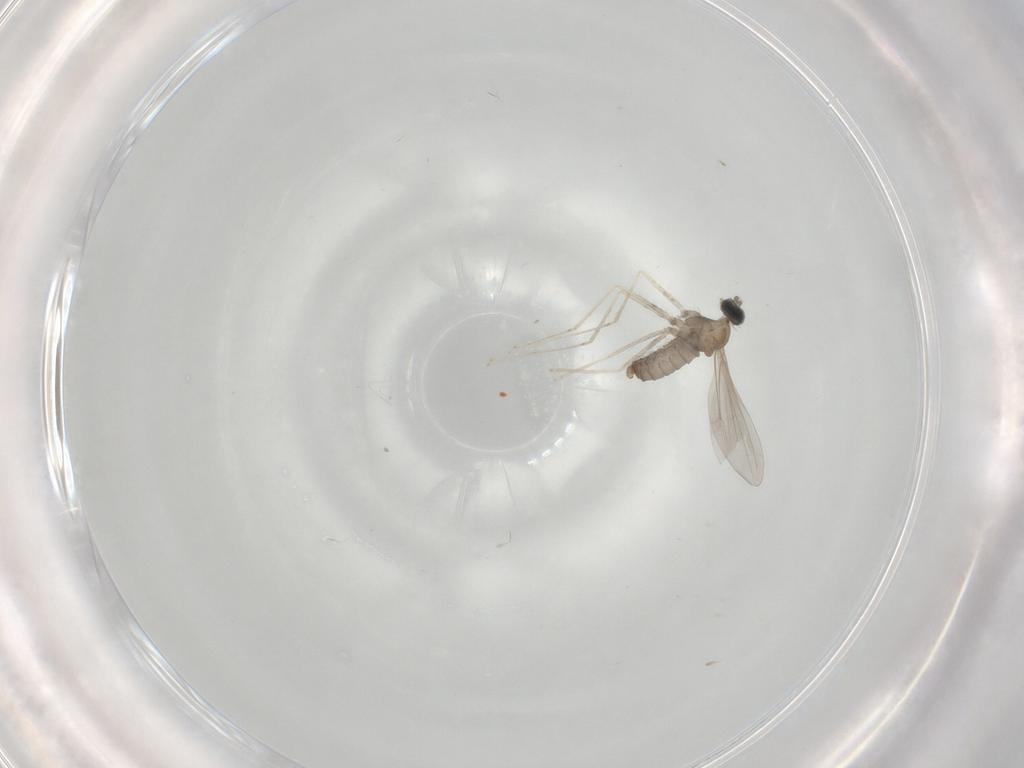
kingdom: Animalia
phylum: Arthropoda
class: Insecta
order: Diptera
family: Cecidomyiidae
